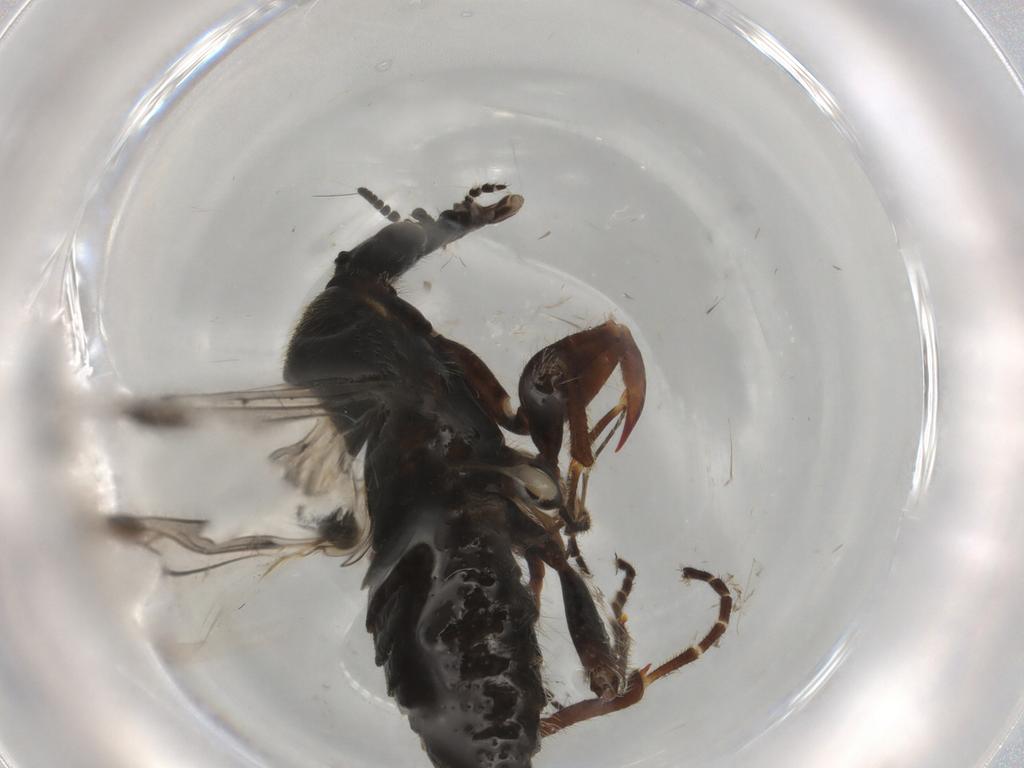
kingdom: Animalia
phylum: Arthropoda
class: Insecta
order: Diptera
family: Bibionidae
